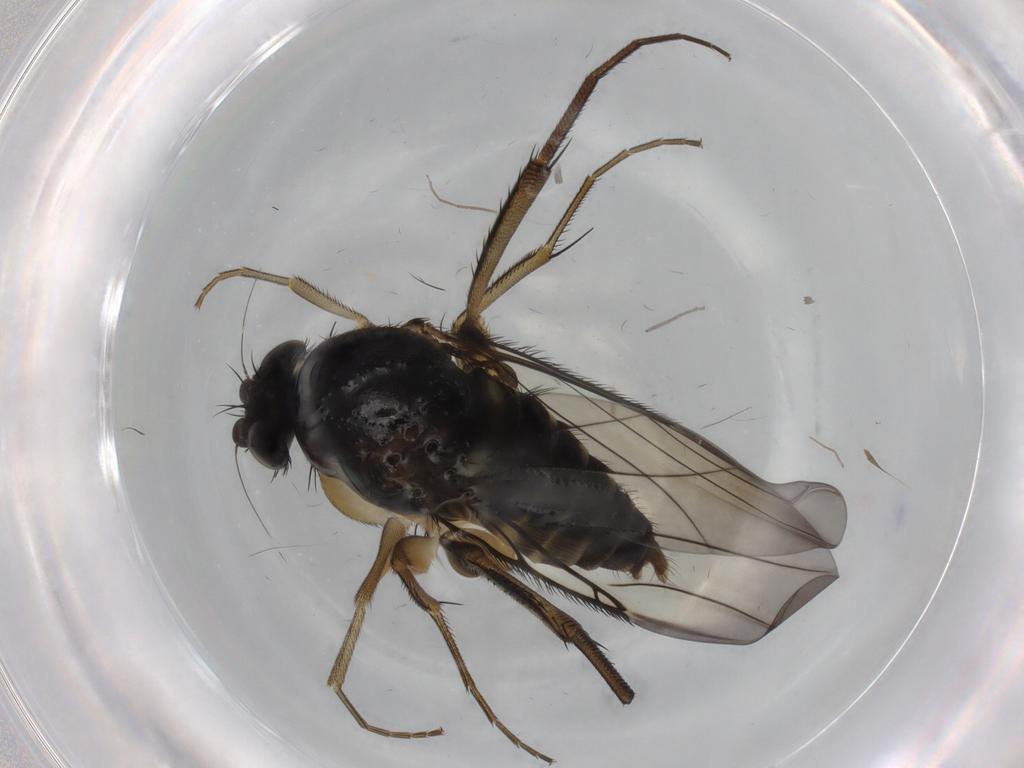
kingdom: Animalia
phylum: Arthropoda
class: Insecta
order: Diptera
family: Phoridae
